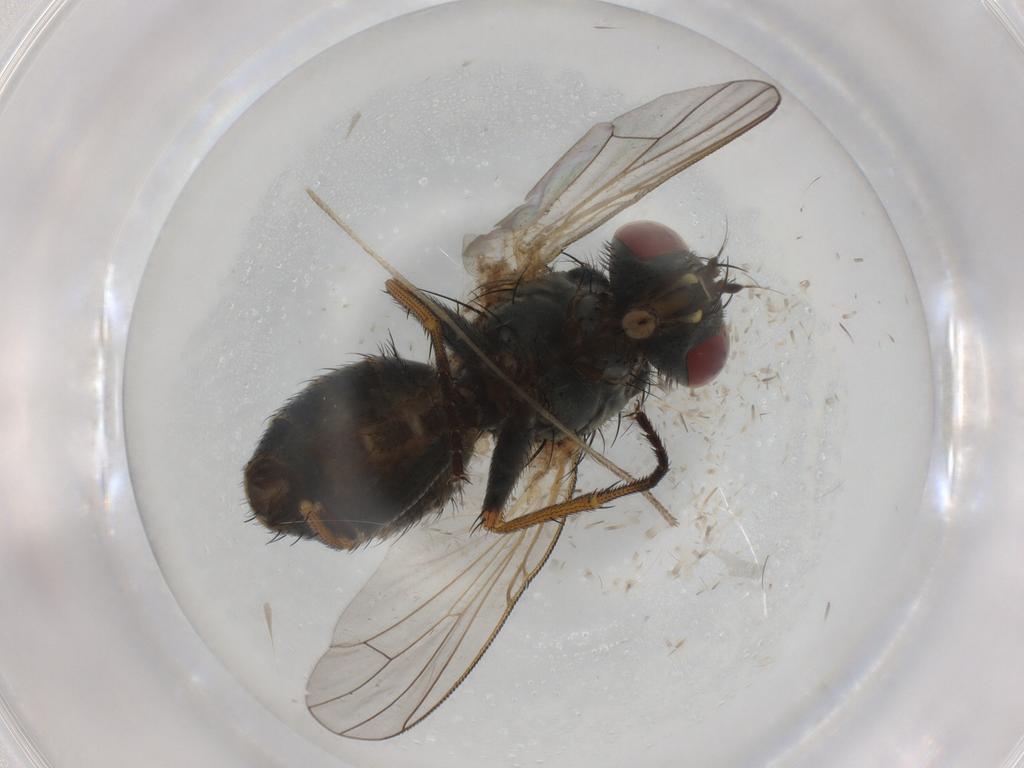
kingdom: Animalia
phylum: Arthropoda
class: Insecta
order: Diptera
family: Muscidae
